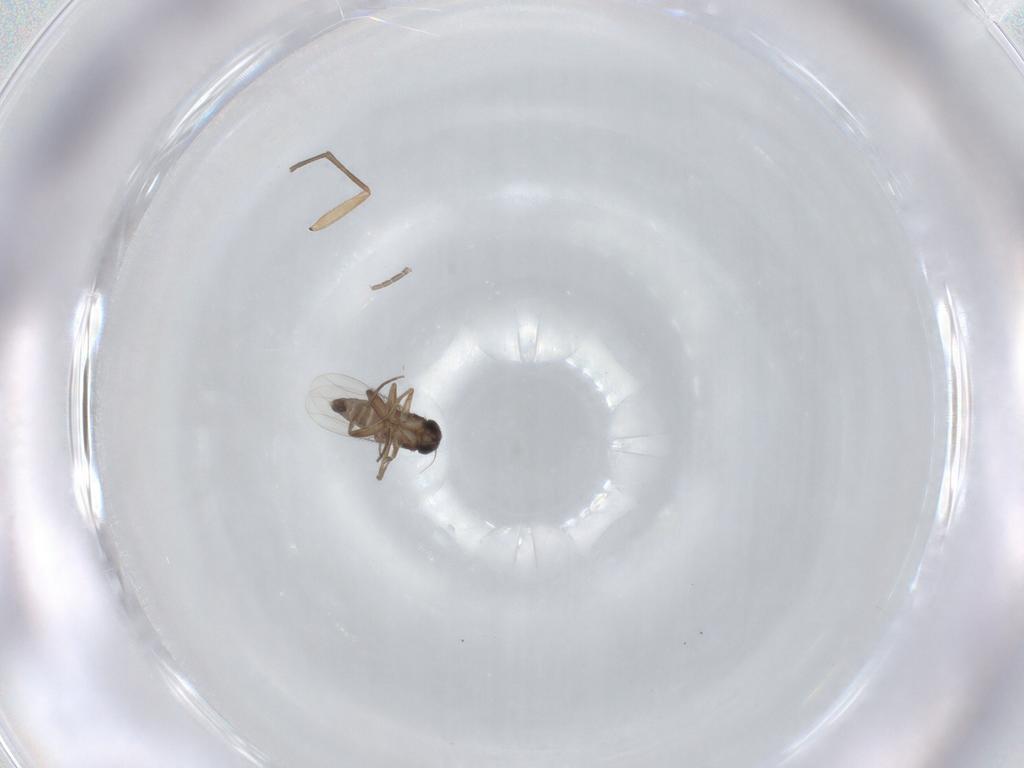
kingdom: Animalia
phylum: Arthropoda
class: Insecta
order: Diptera
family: Phoridae
